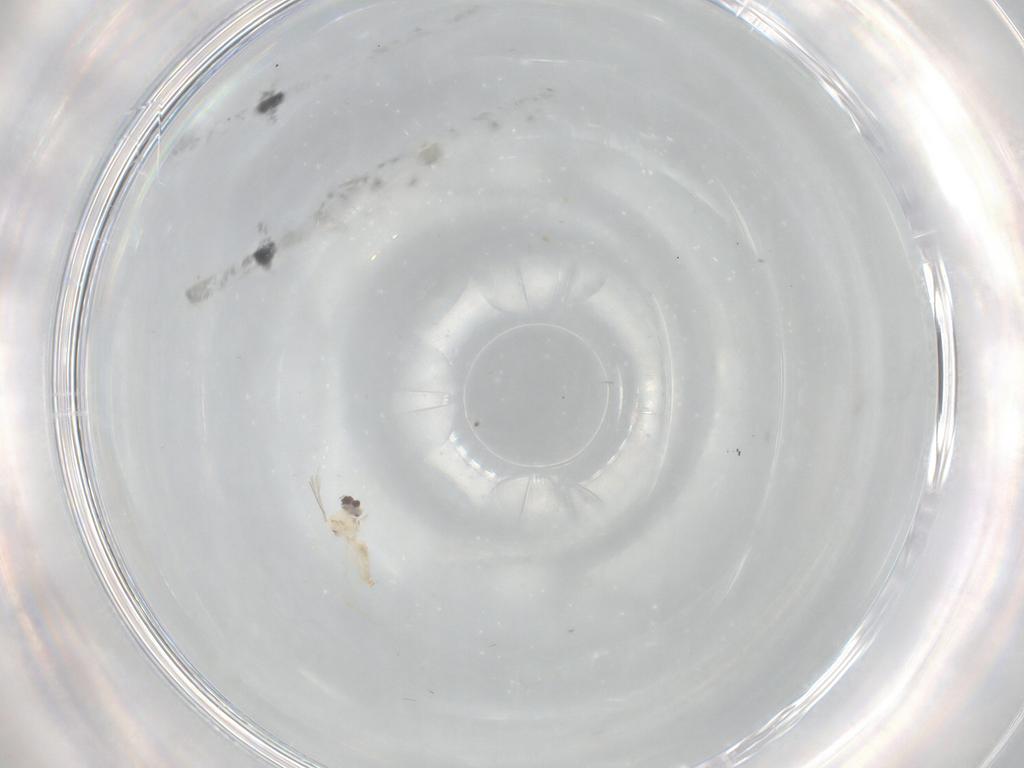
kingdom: Animalia
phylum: Arthropoda
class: Insecta
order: Diptera
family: Cecidomyiidae
